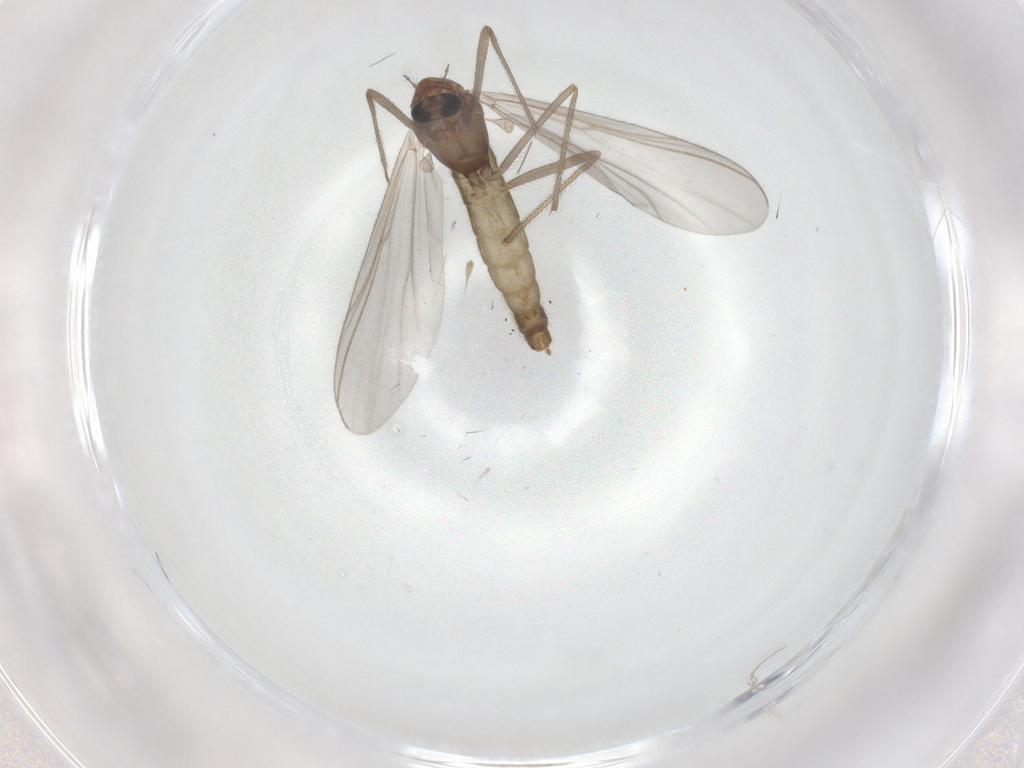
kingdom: Animalia
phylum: Arthropoda
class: Insecta
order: Diptera
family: Chironomidae
